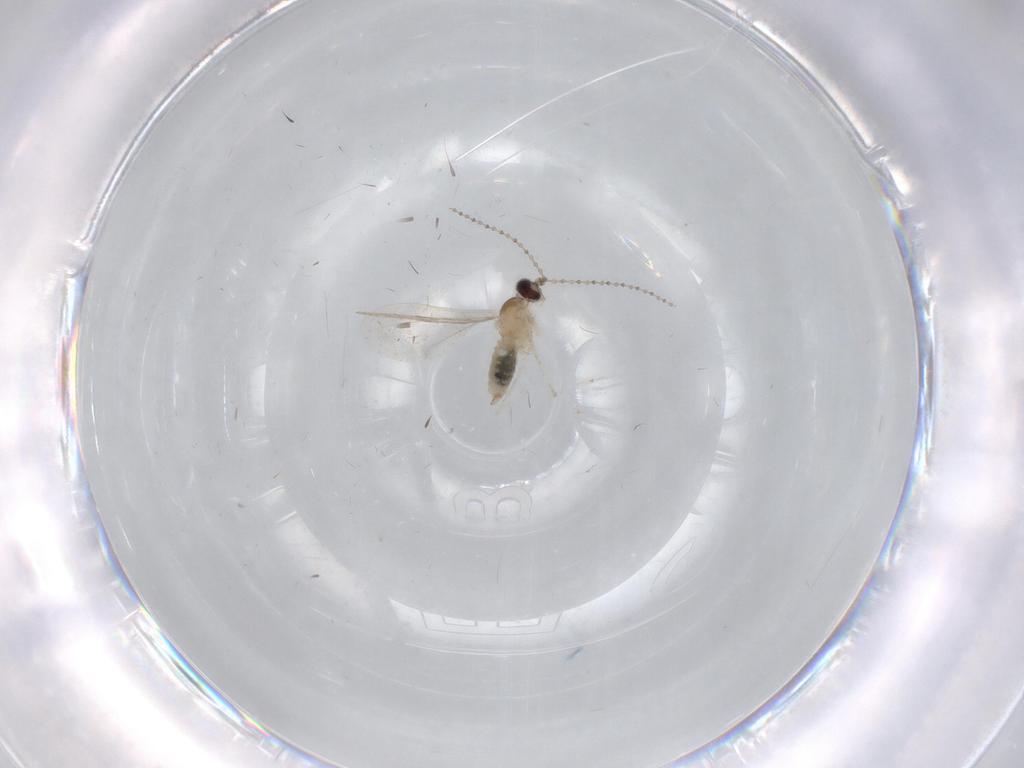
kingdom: Animalia
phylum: Arthropoda
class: Insecta
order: Diptera
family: Cecidomyiidae
